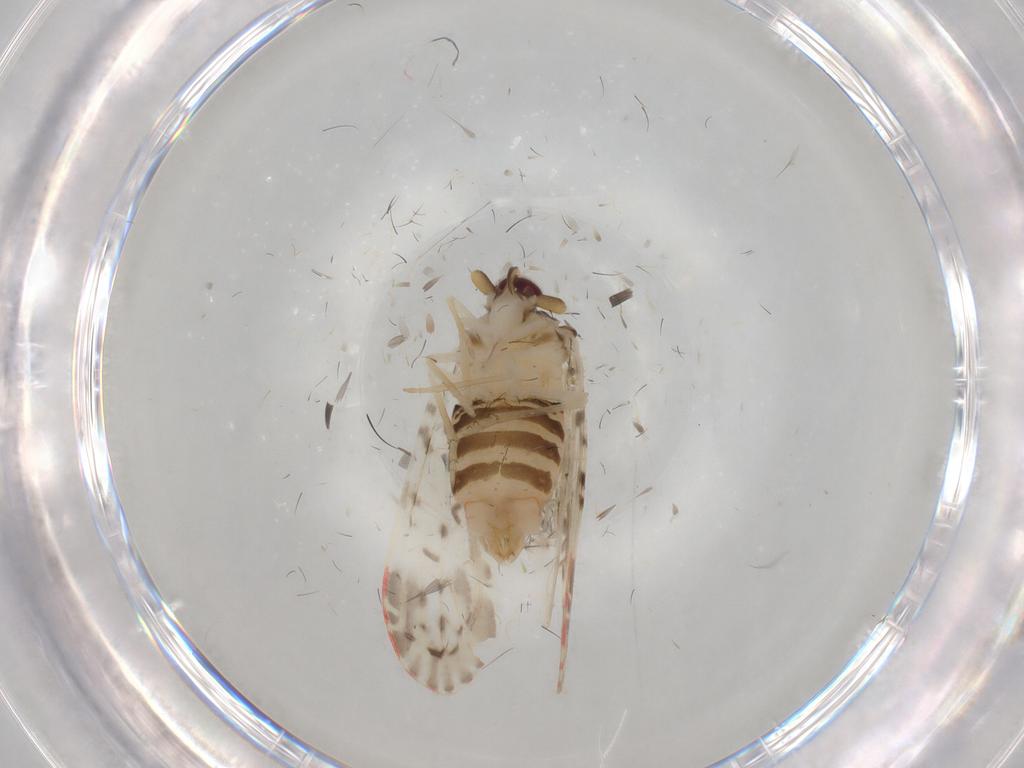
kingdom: Animalia
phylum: Arthropoda
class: Insecta
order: Hemiptera
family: Derbidae
